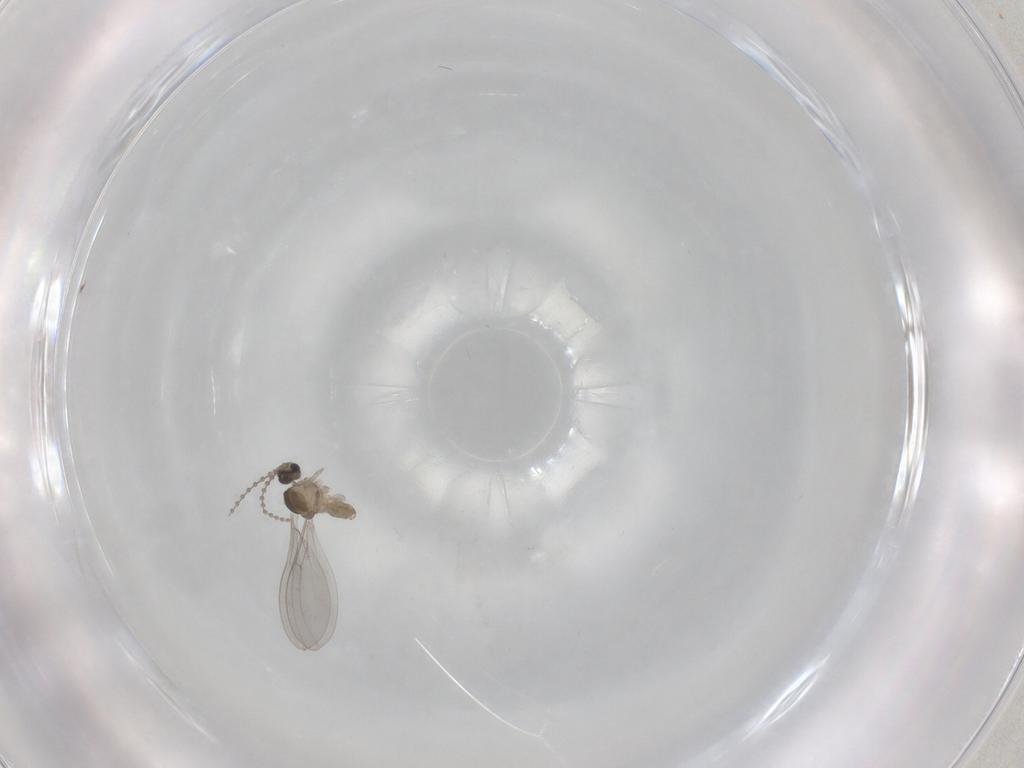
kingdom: Animalia
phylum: Arthropoda
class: Insecta
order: Diptera
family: Cecidomyiidae
